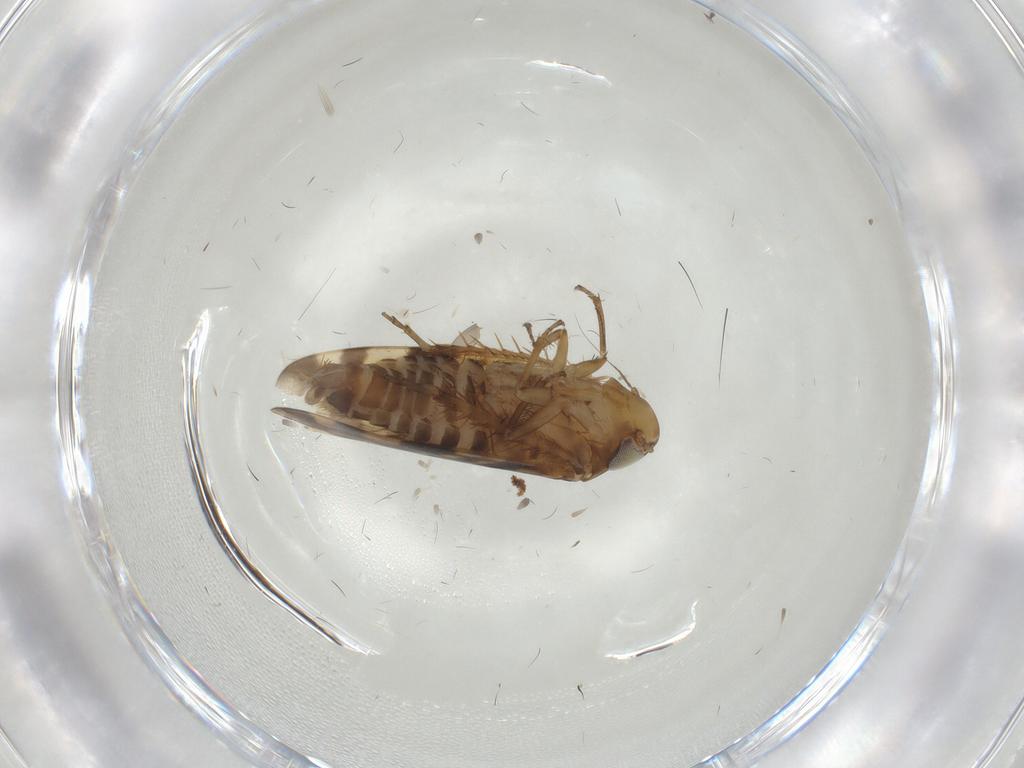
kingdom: Animalia
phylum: Arthropoda
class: Insecta
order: Hemiptera
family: Cicadellidae
